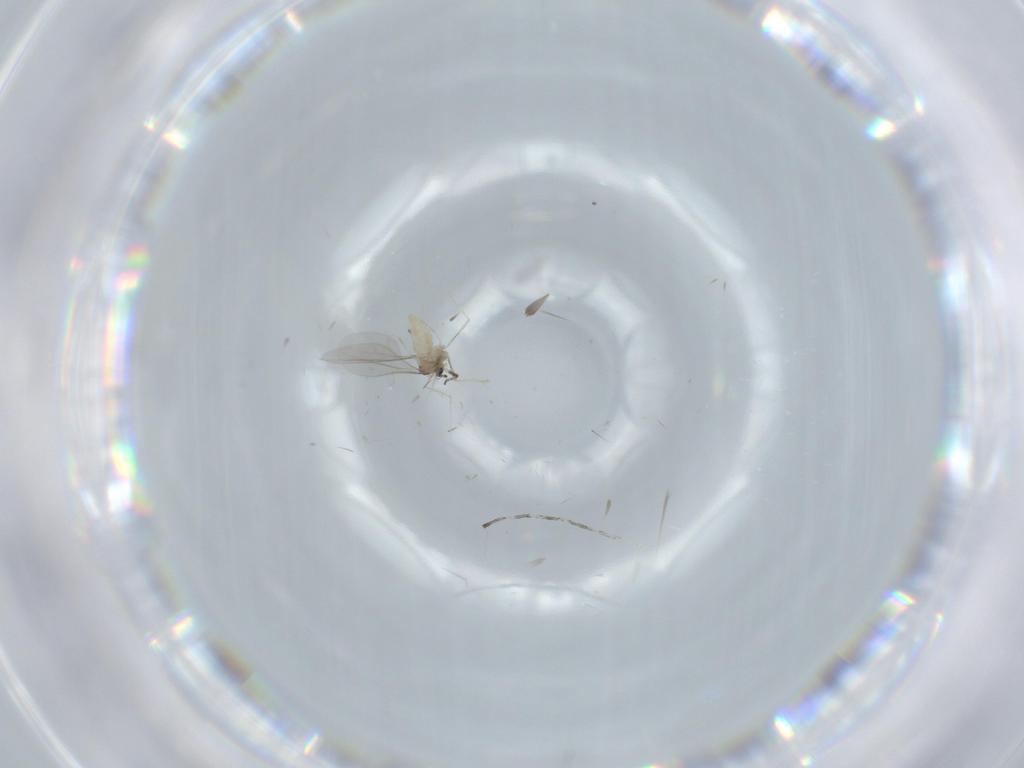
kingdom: Animalia
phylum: Arthropoda
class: Insecta
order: Diptera
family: Cecidomyiidae
